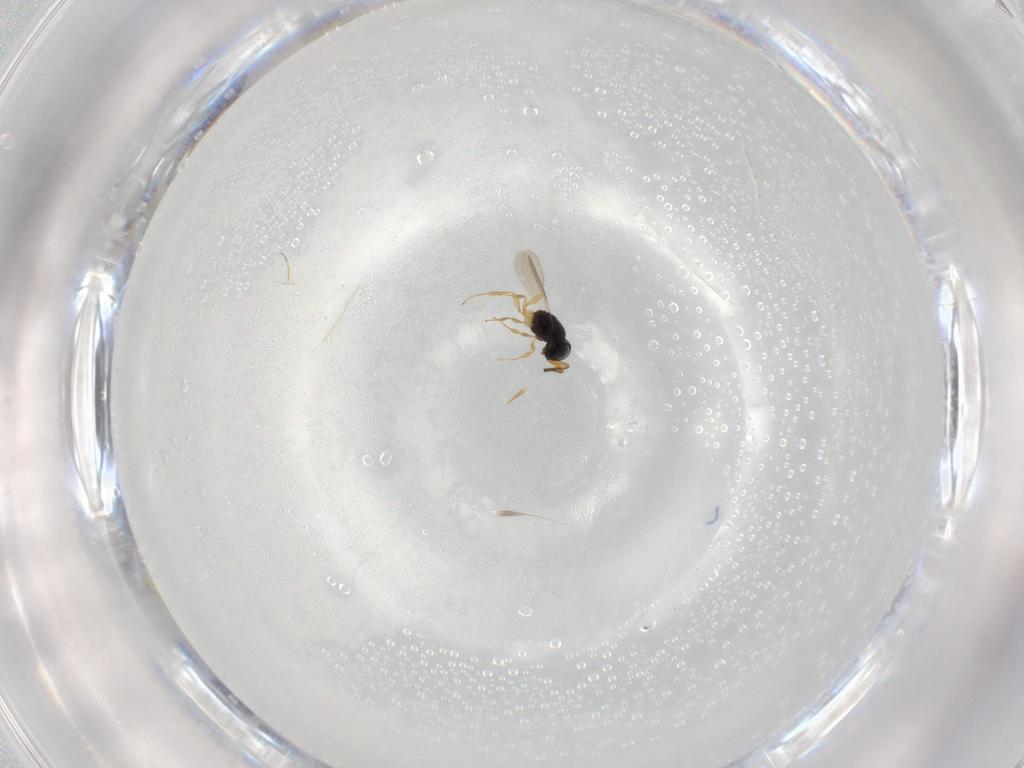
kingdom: Animalia
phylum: Arthropoda
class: Insecta
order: Hymenoptera
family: Scelionidae
